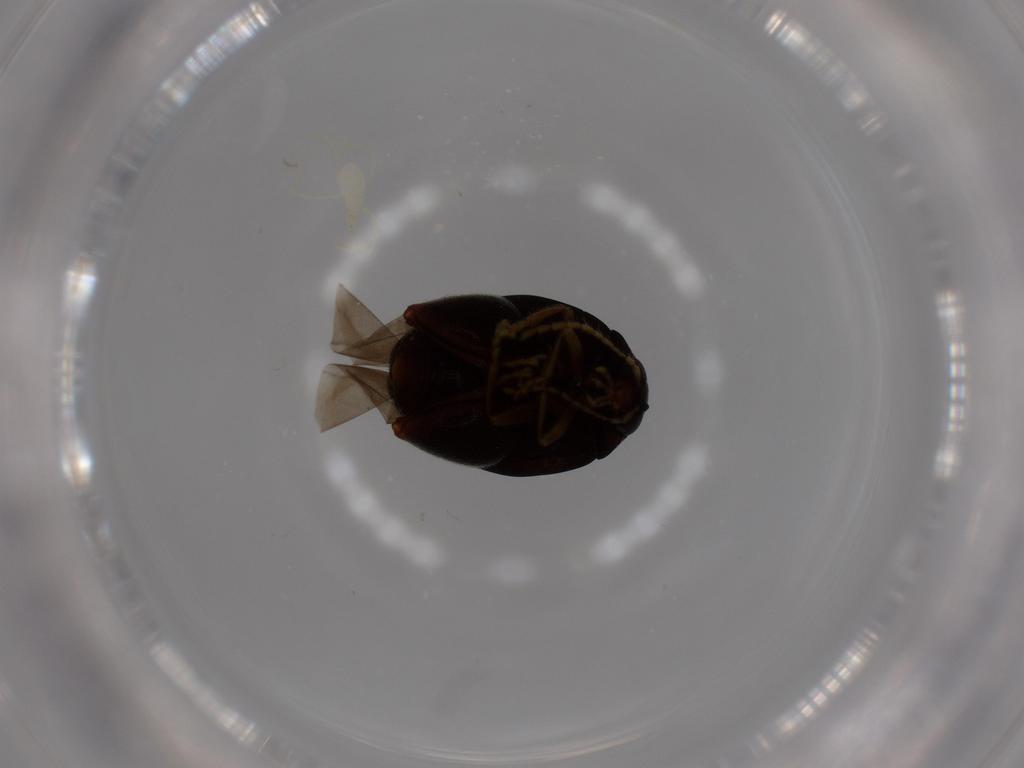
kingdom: Animalia
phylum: Arthropoda
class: Insecta
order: Coleoptera
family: Chrysomelidae
